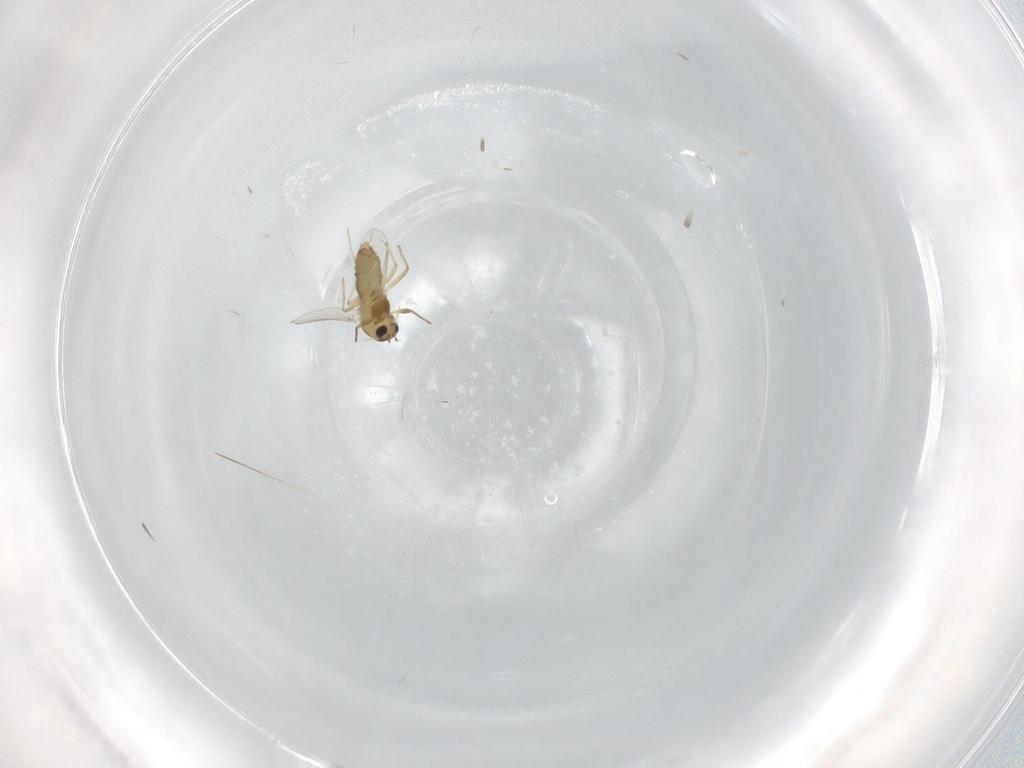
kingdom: Animalia
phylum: Arthropoda
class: Insecta
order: Diptera
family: Chironomidae
